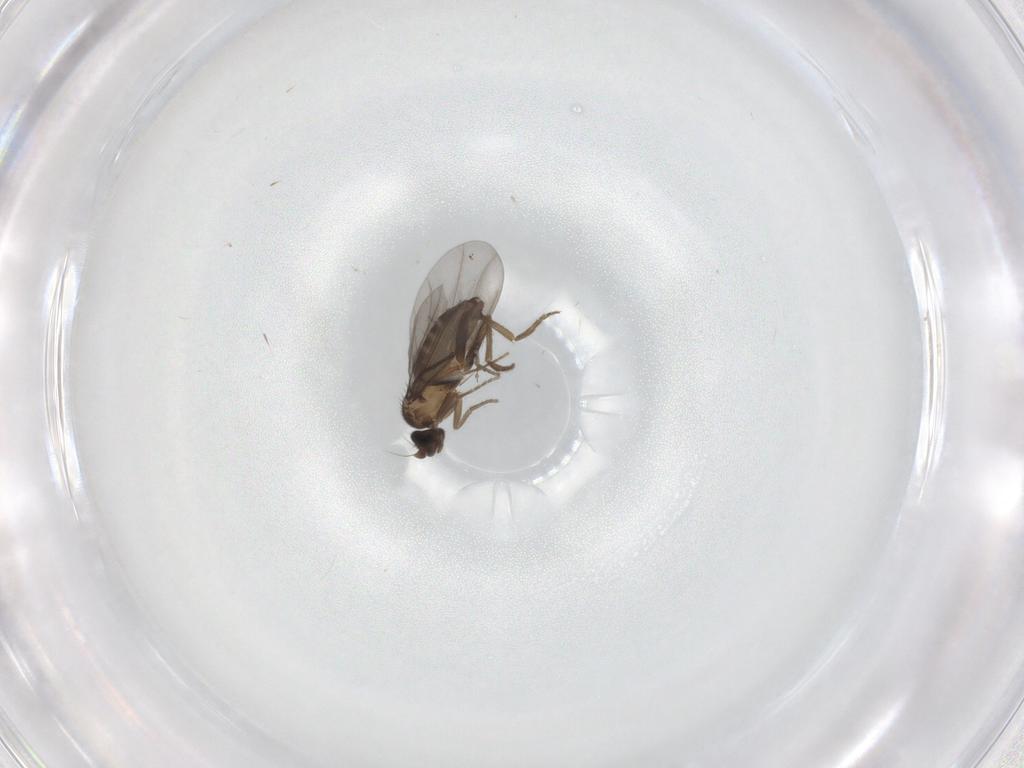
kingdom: Animalia
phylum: Arthropoda
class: Insecta
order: Diptera
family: Phoridae
